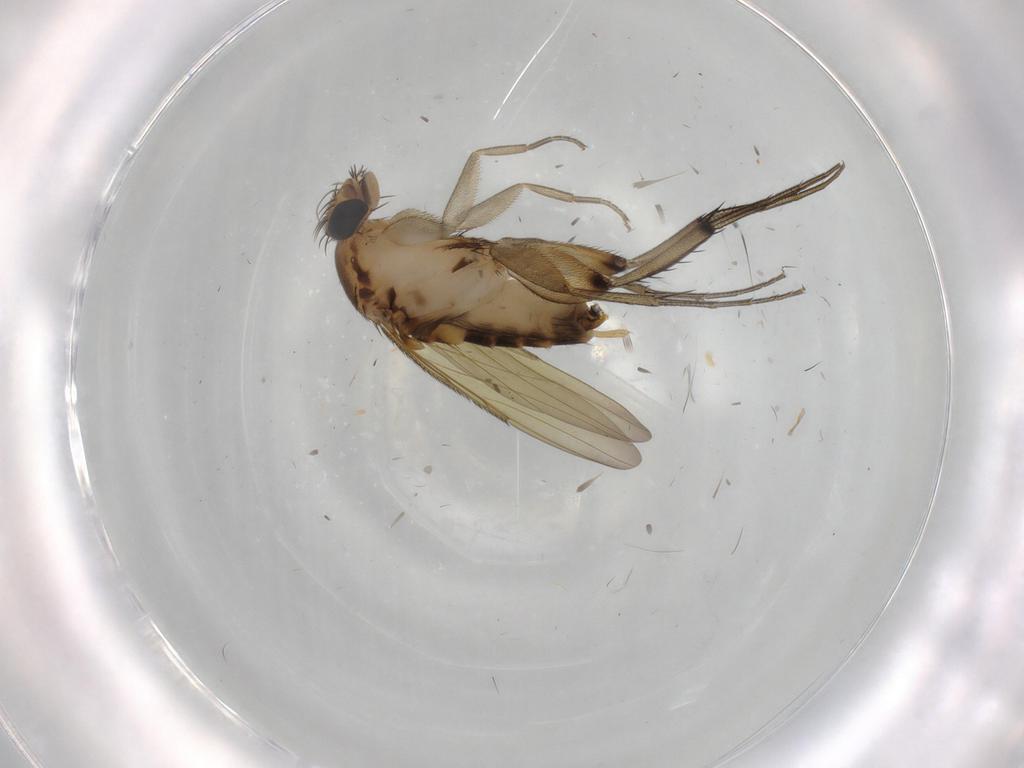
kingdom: Animalia
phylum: Arthropoda
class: Insecta
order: Diptera
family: Phoridae
